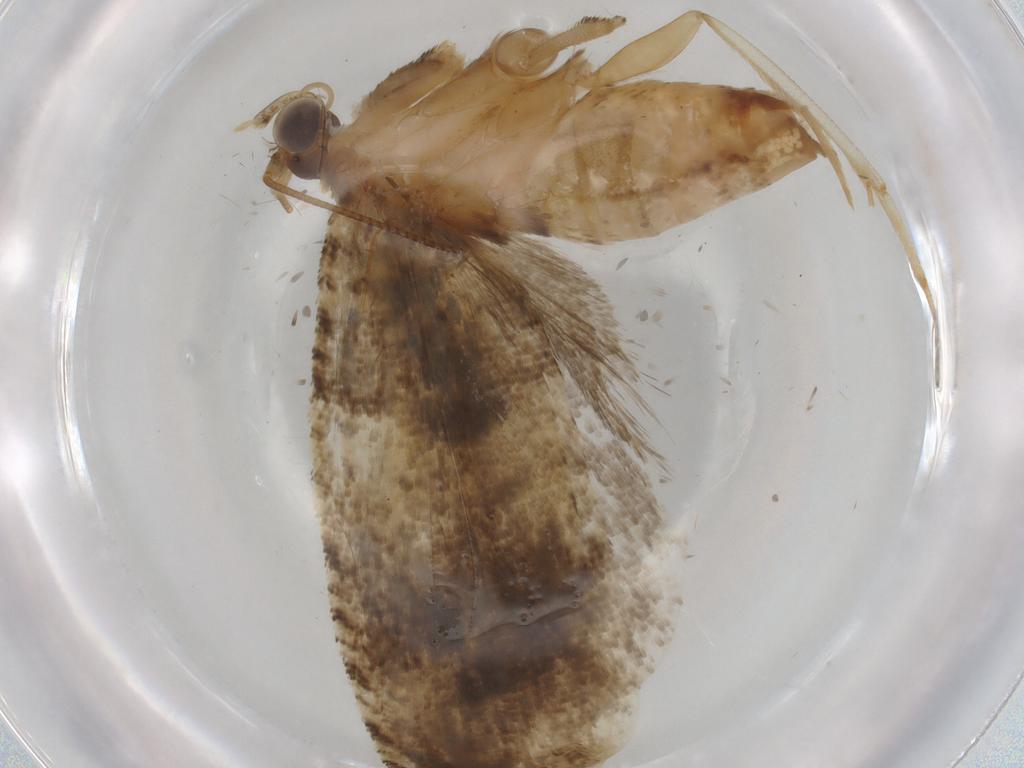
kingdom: Animalia
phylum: Arthropoda
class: Insecta
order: Lepidoptera
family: Tortricidae
